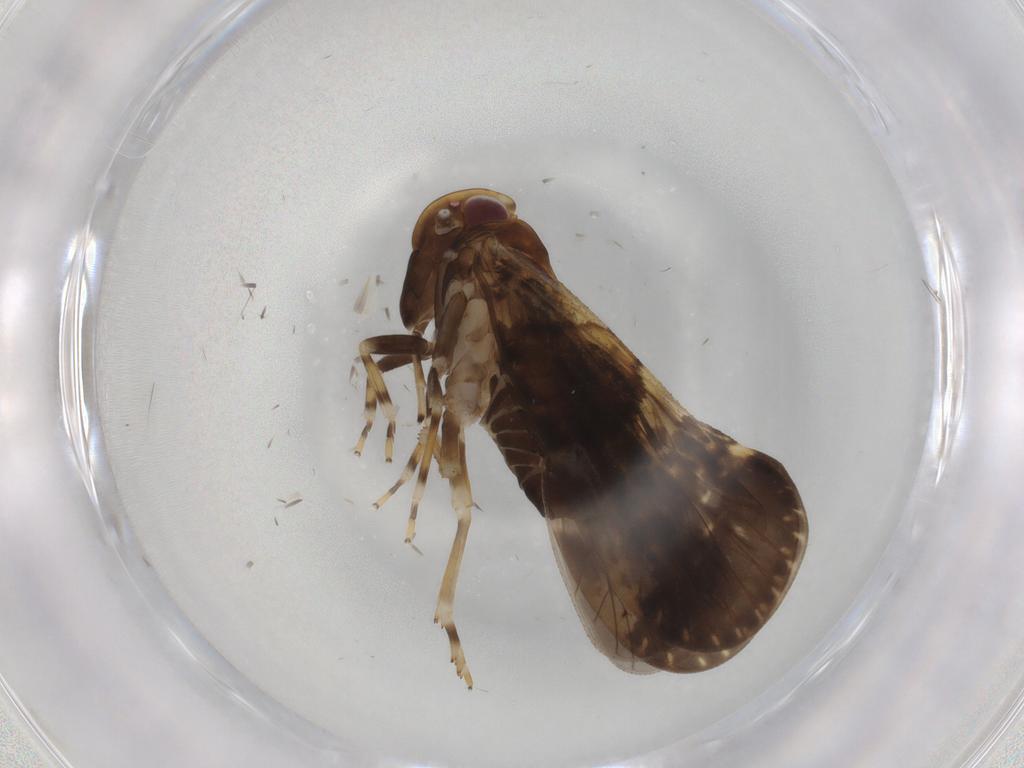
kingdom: Animalia
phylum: Arthropoda
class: Insecta
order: Hemiptera
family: Cixiidae
